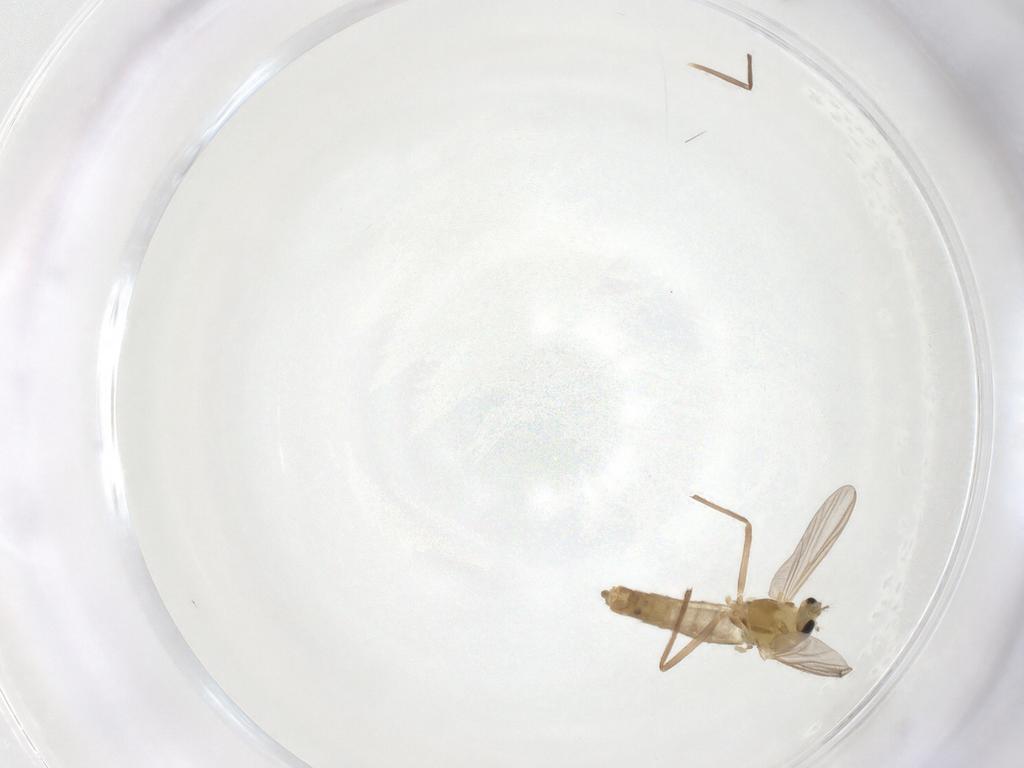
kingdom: Animalia
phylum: Arthropoda
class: Insecta
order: Diptera
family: Chironomidae
